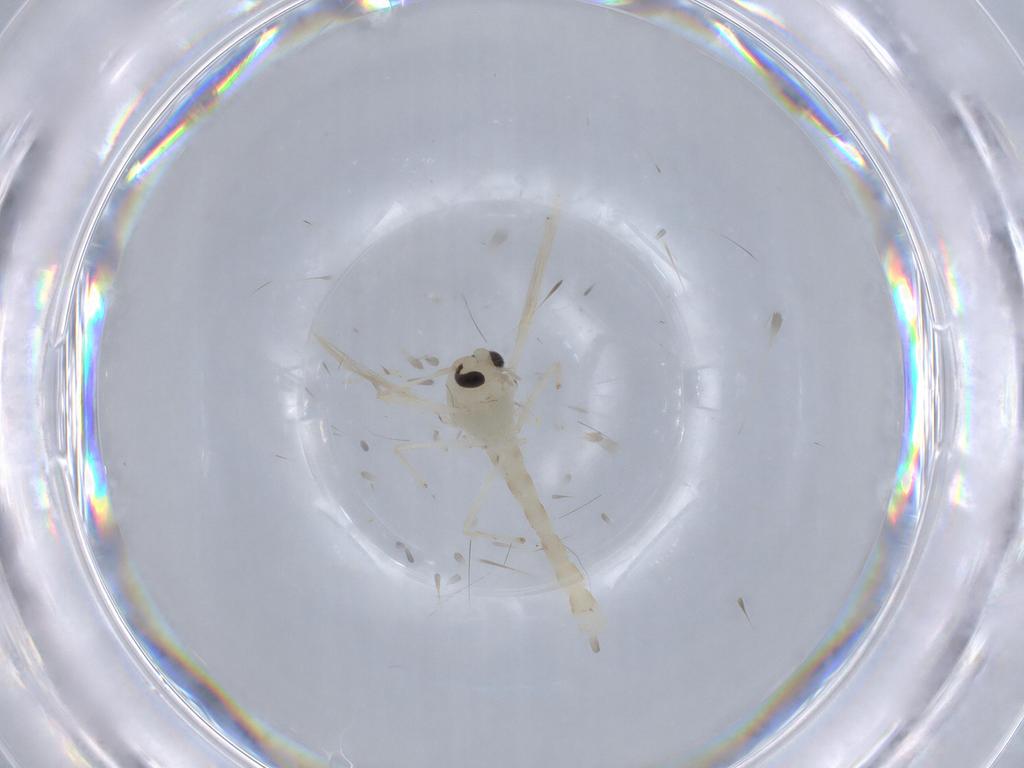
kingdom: Animalia
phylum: Arthropoda
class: Insecta
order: Diptera
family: Chironomidae
